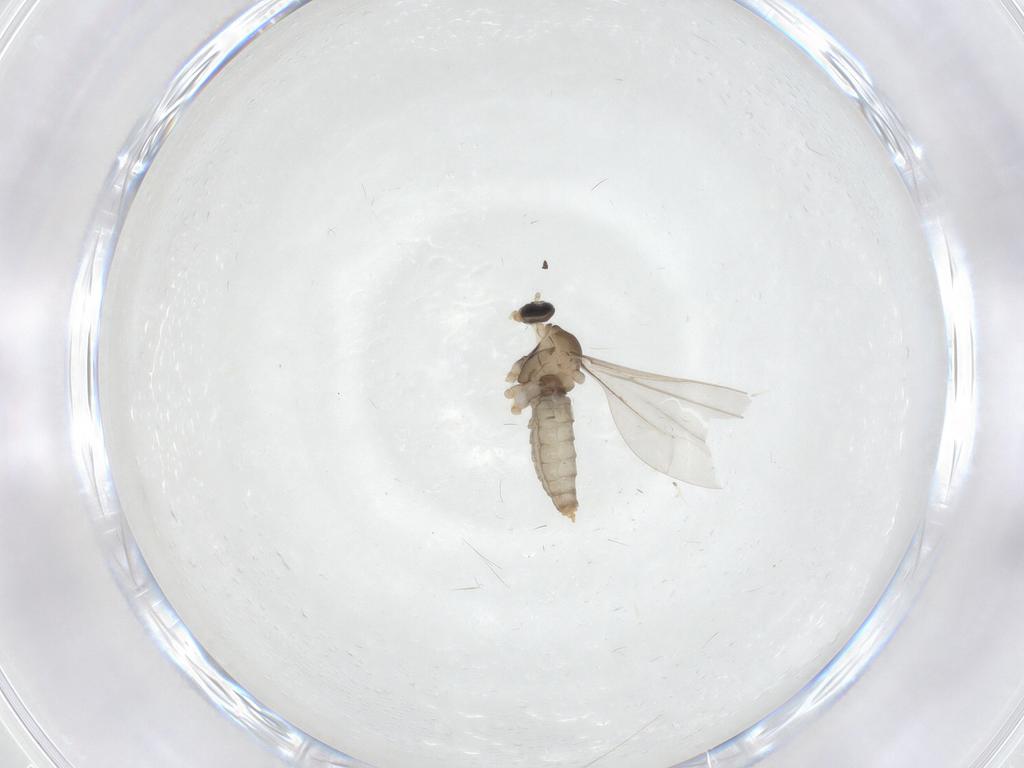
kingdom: Animalia
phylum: Arthropoda
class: Insecta
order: Diptera
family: Cecidomyiidae
